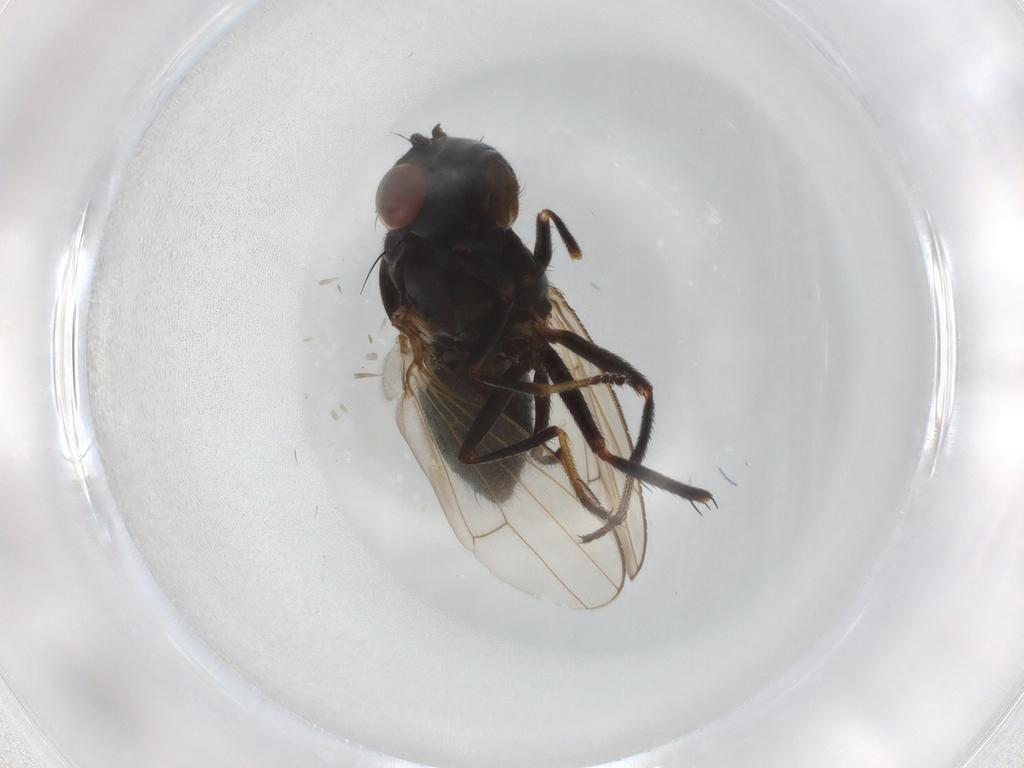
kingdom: Animalia
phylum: Arthropoda
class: Insecta
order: Diptera
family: Ephydridae
